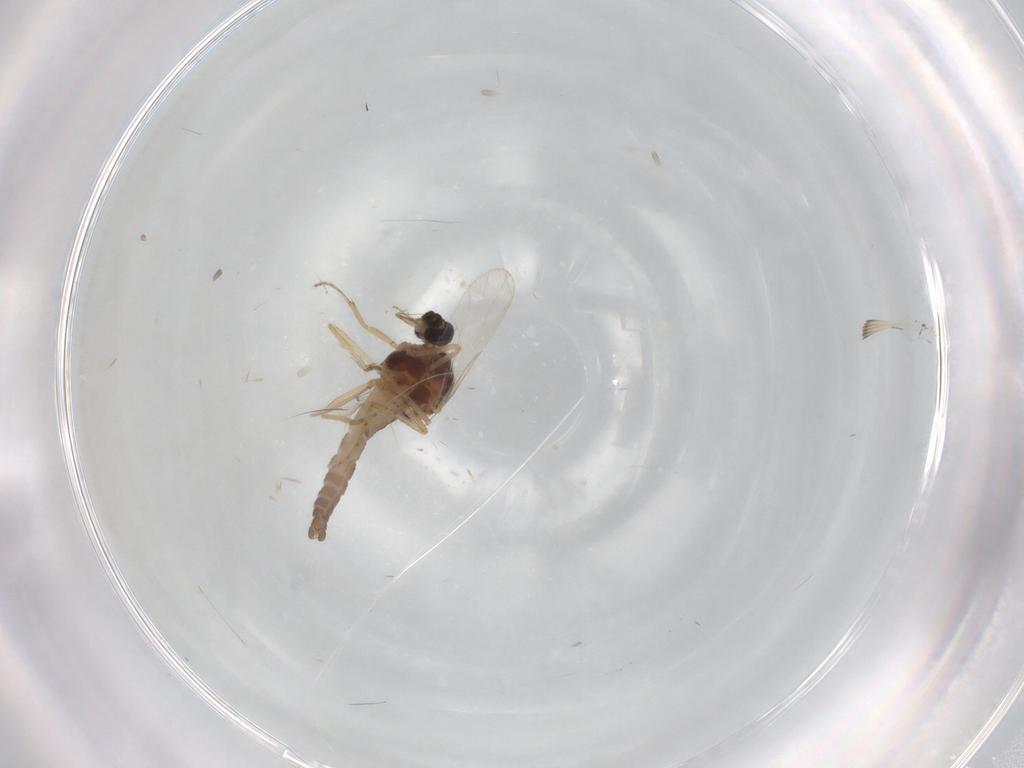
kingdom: Animalia
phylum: Arthropoda
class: Insecta
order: Diptera
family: Ceratopogonidae
